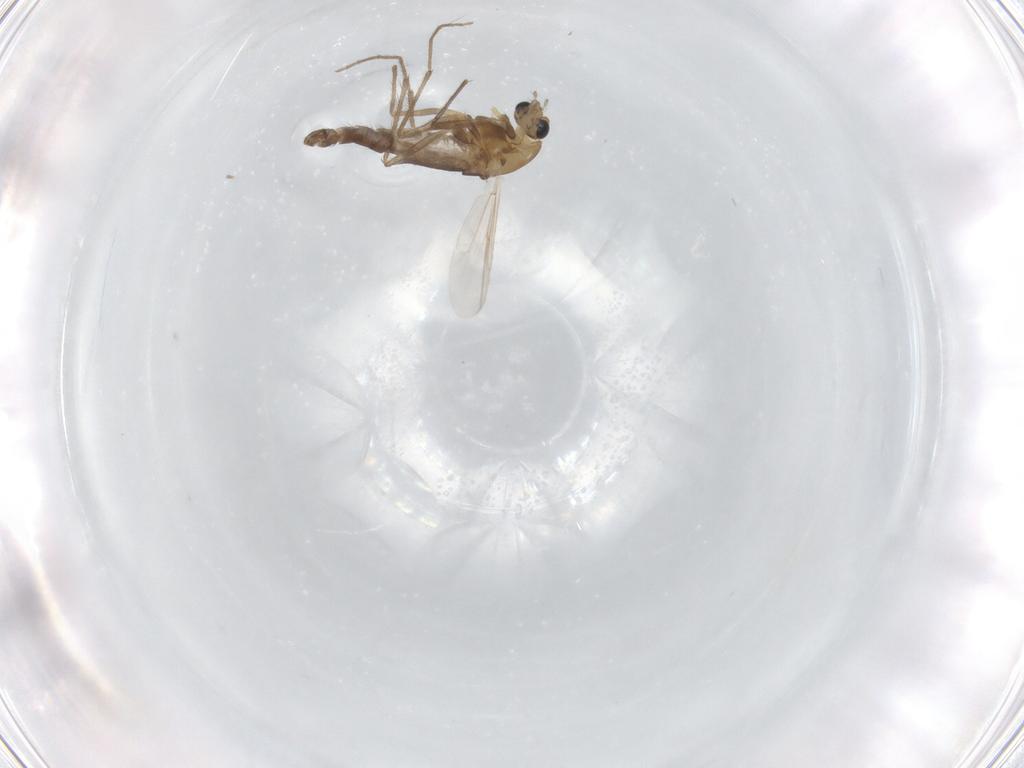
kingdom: Animalia
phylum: Arthropoda
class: Insecta
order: Diptera
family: Chironomidae
